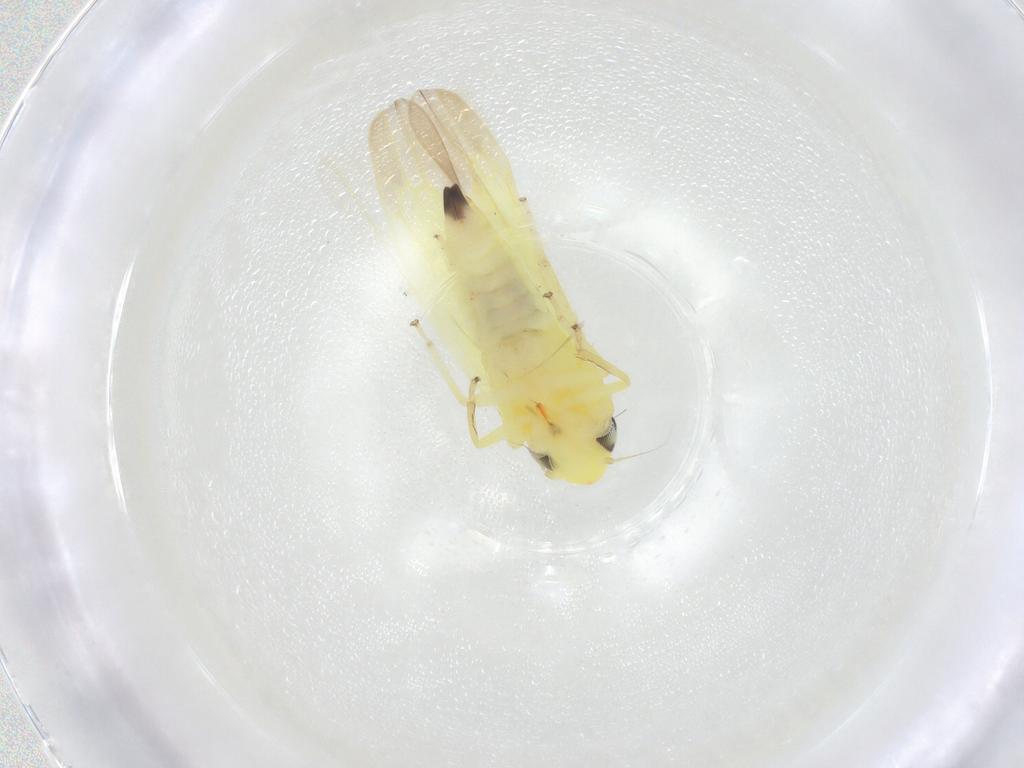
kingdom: Animalia
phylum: Arthropoda
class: Insecta
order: Hemiptera
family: Cicadellidae
